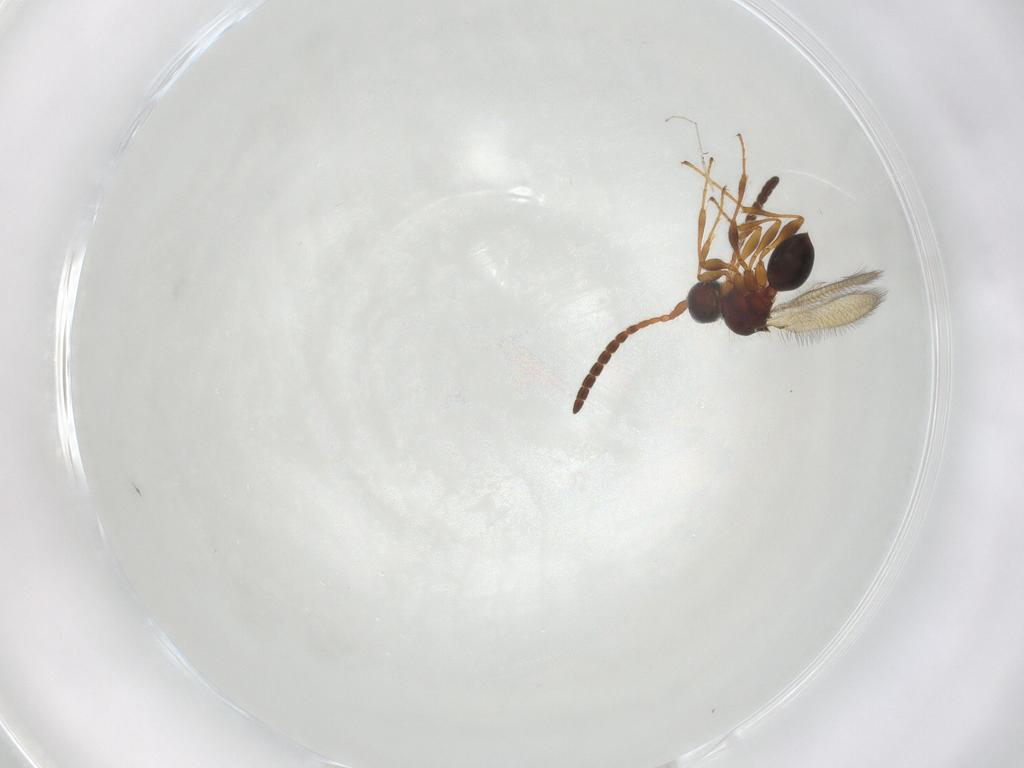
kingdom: Animalia
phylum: Arthropoda
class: Insecta
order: Hymenoptera
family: Diapriidae
